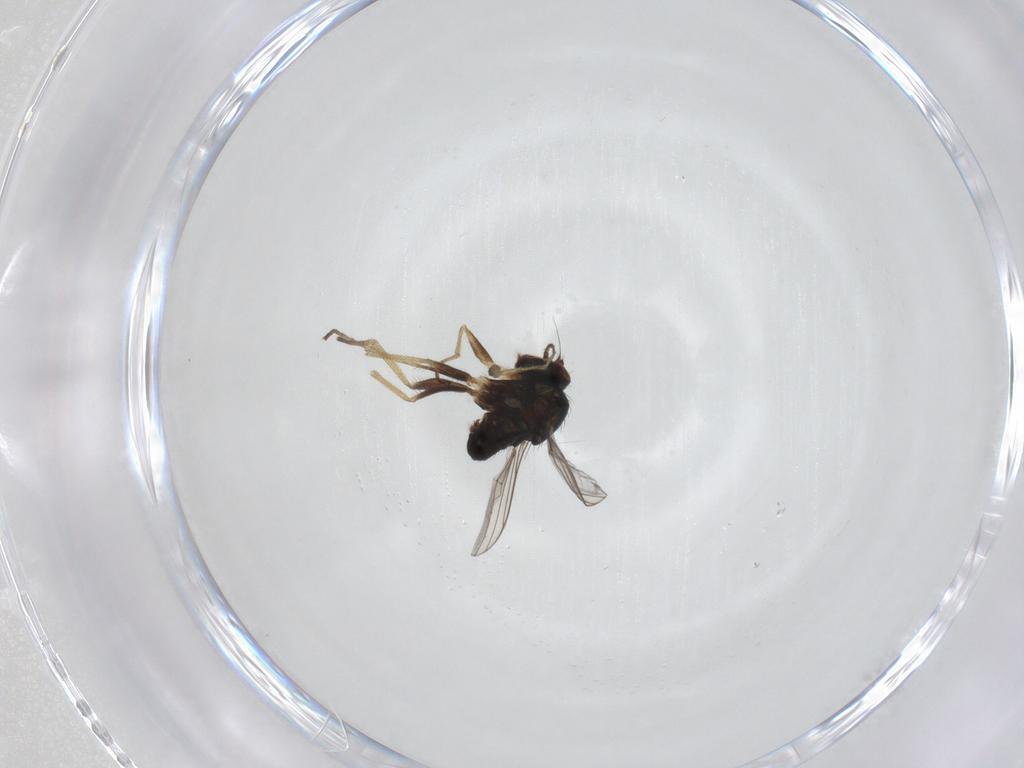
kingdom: Animalia
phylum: Arthropoda
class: Insecta
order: Diptera
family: Dolichopodidae
